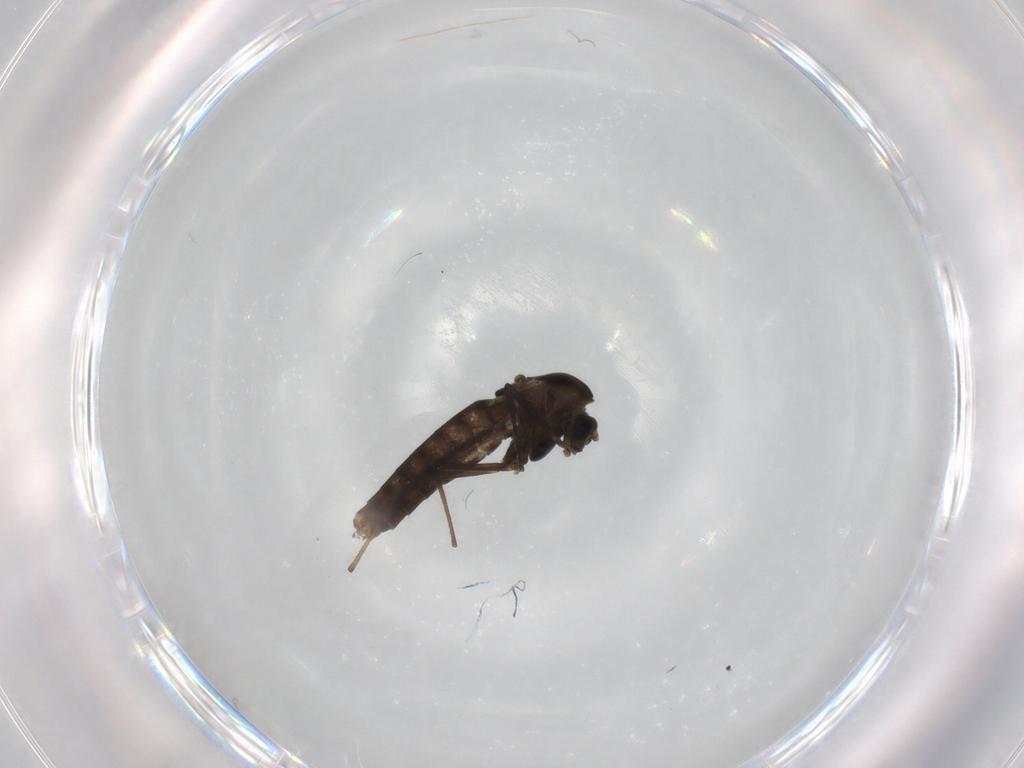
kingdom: Animalia
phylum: Arthropoda
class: Insecta
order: Diptera
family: Chironomidae
